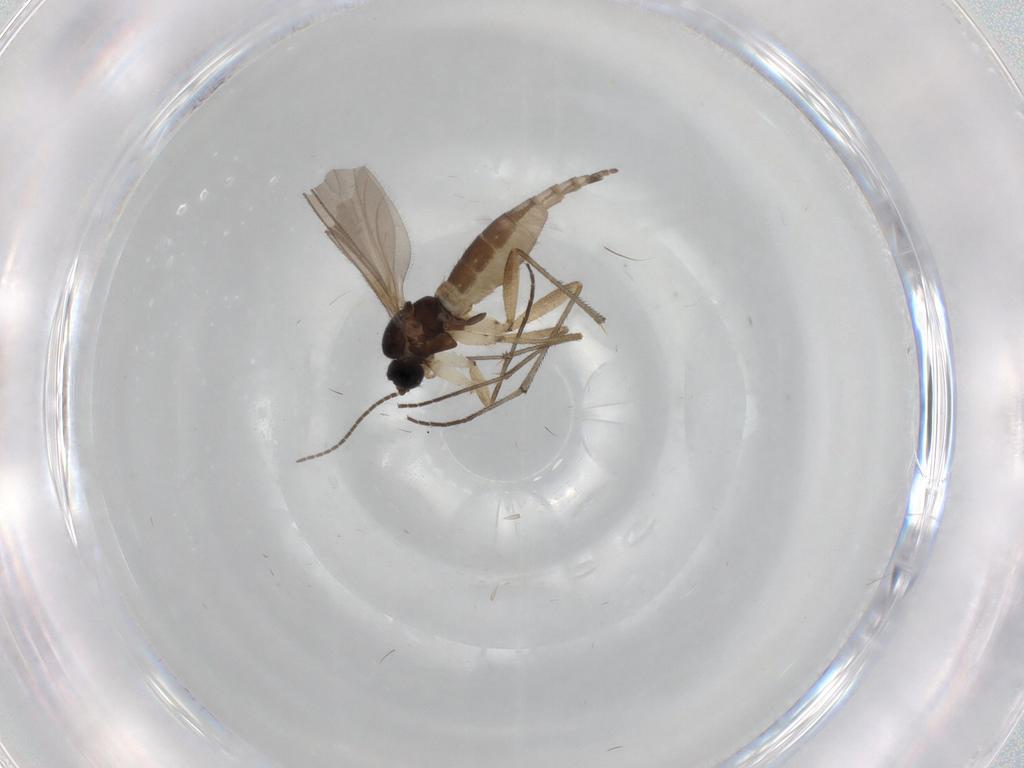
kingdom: Animalia
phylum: Arthropoda
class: Insecta
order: Diptera
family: Sciaridae
